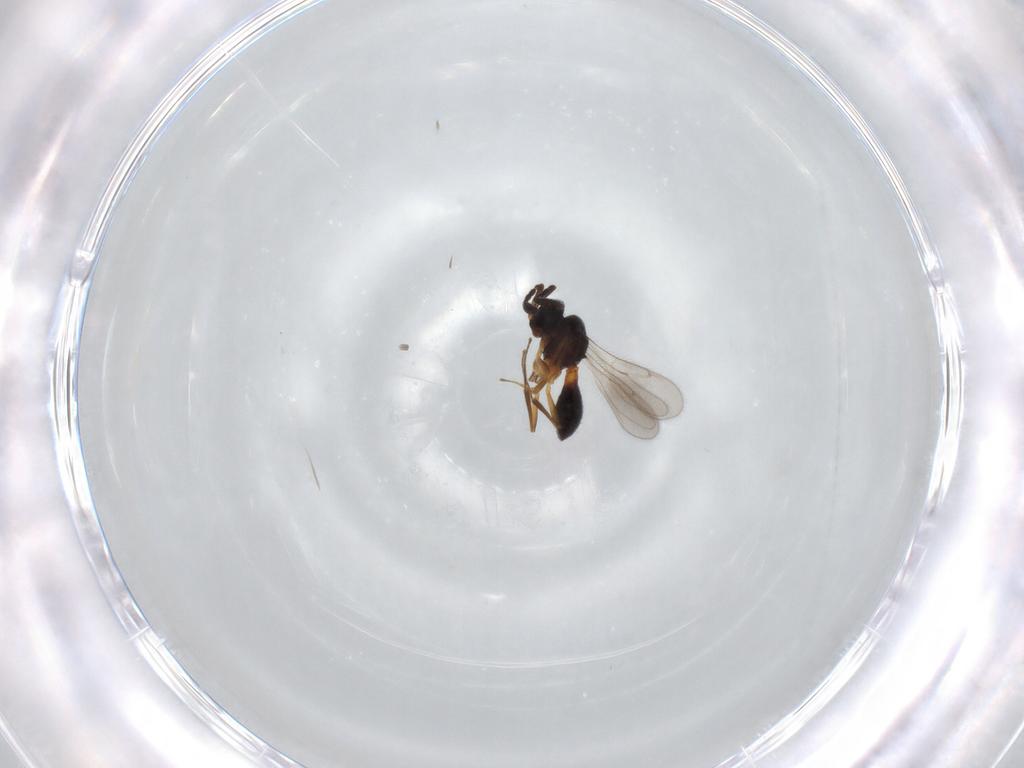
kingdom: Animalia
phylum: Arthropoda
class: Insecta
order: Hymenoptera
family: Scelionidae
